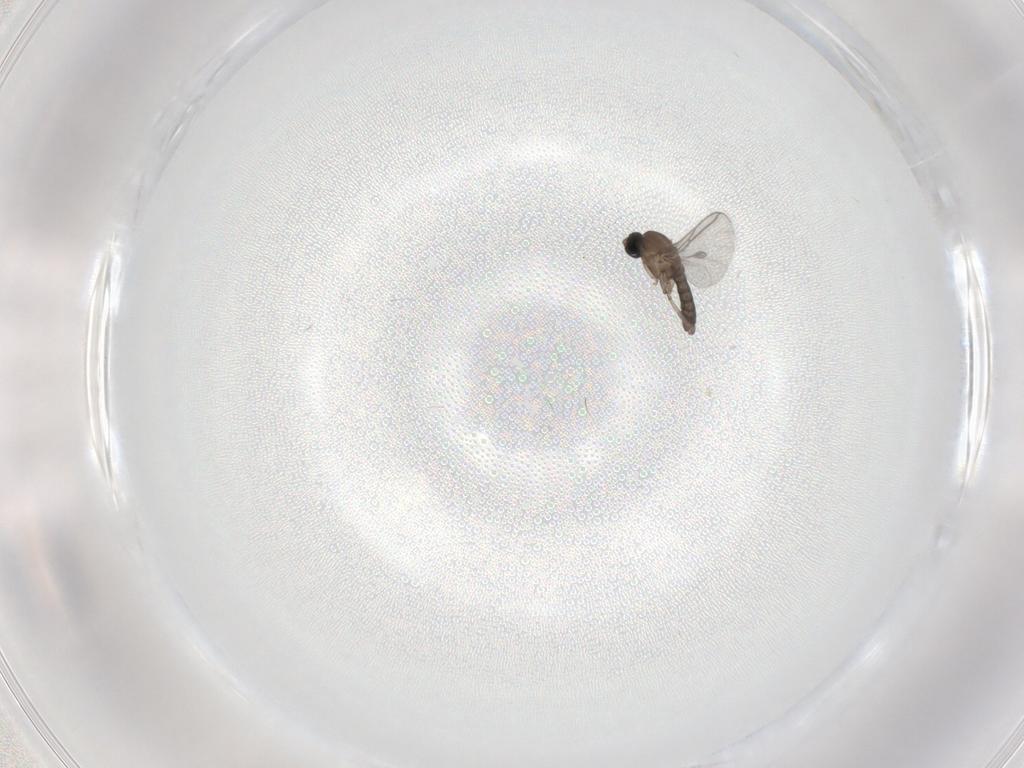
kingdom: Animalia
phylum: Arthropoda
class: Insecta
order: Diptera
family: Sciaridae
